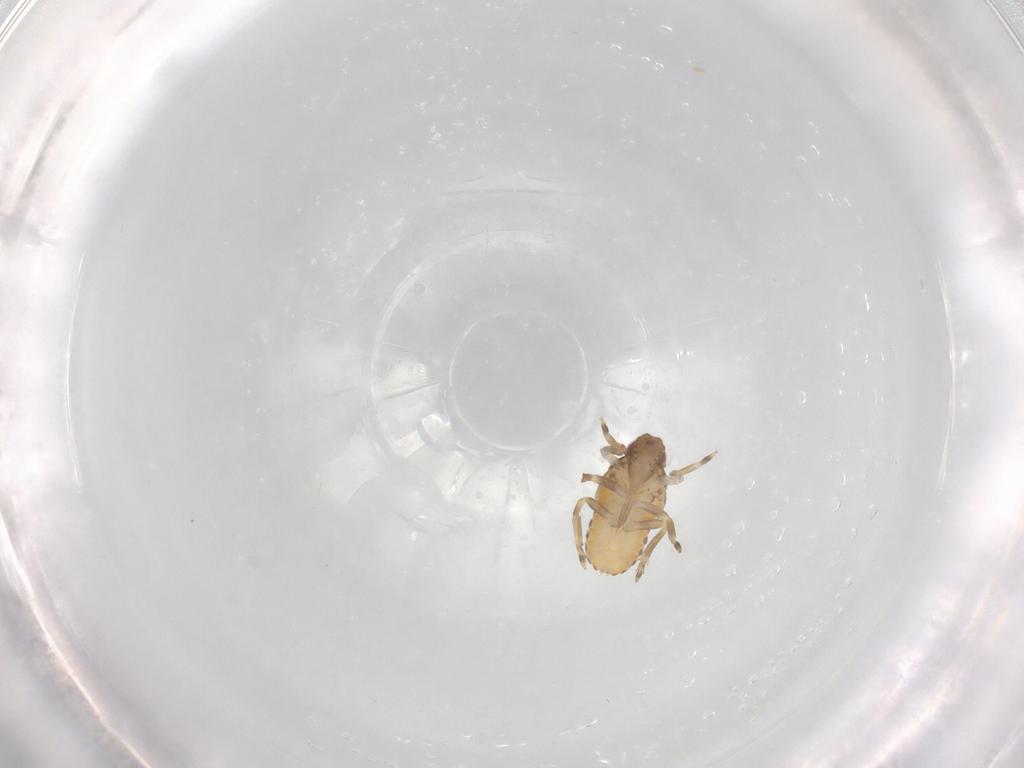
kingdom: Animalia
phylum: Arthropoda
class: Insecta
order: Hemiptera
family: Flatidae
